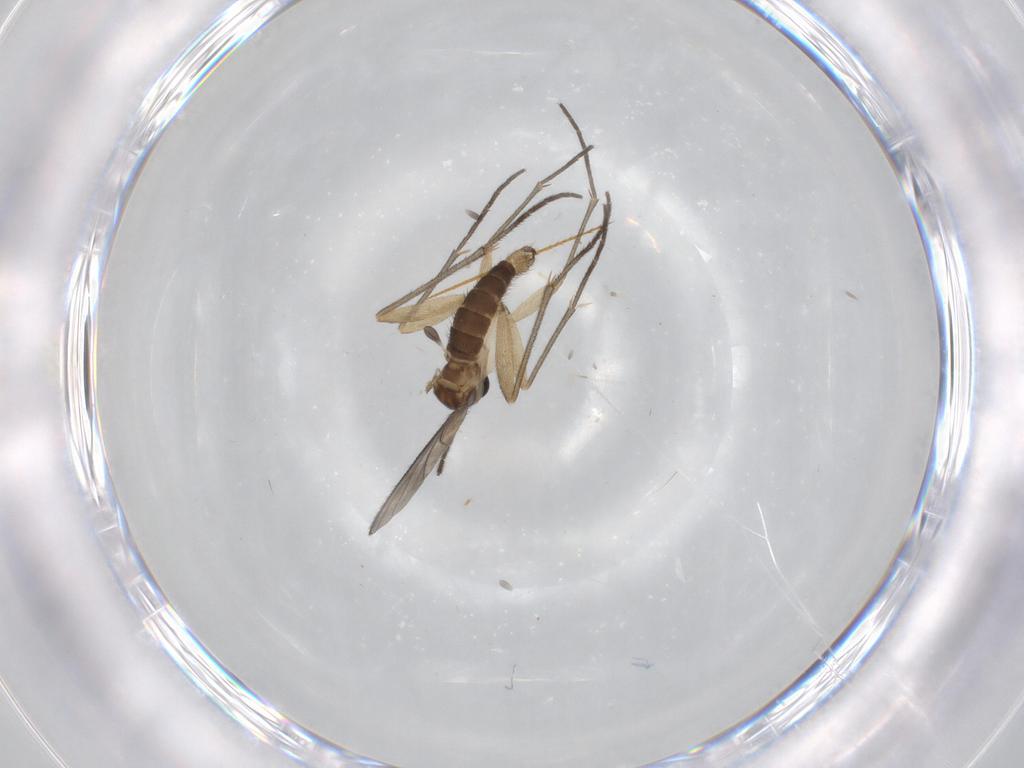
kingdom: Animalia
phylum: Arthropoda
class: Insecta
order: Diptera
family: Sciaridae
